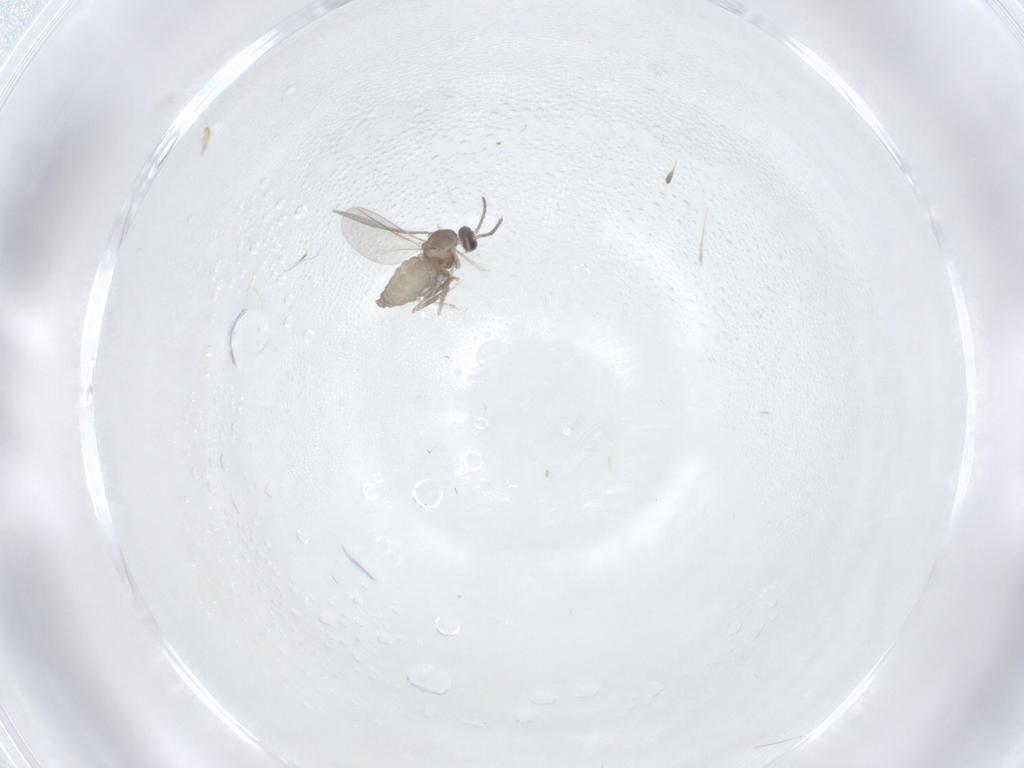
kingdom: Animalia
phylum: Arthropoda
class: Insecta
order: Diptera
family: Cecidomyiidae
